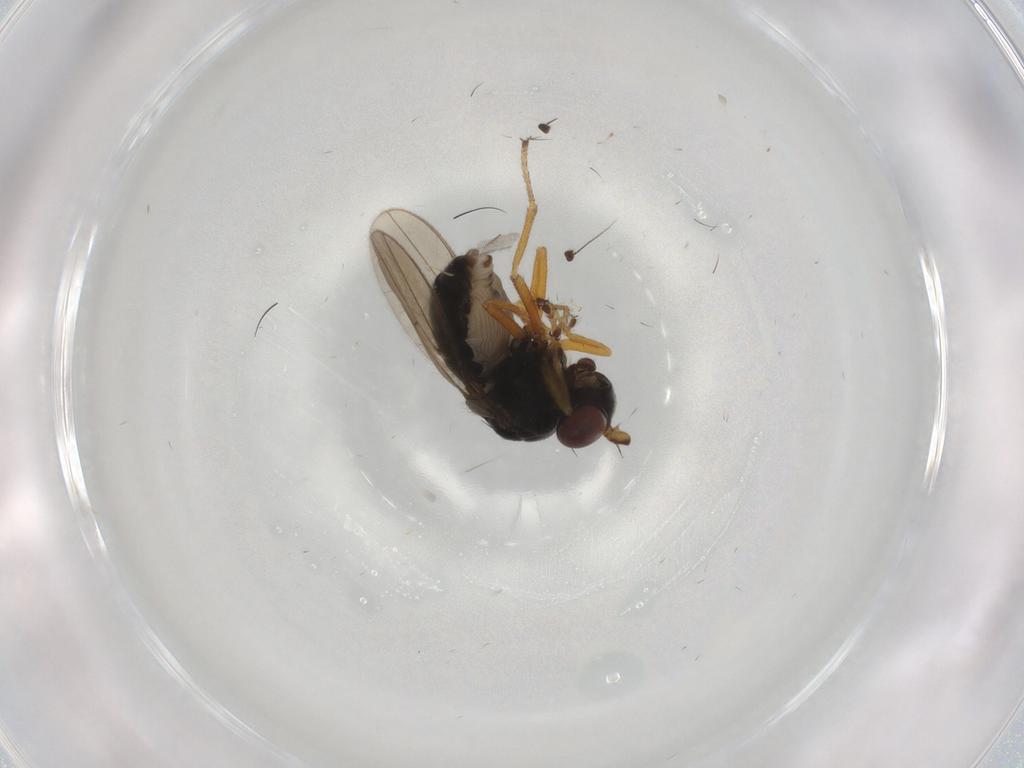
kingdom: Animalia
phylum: Arthropoda
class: Insecta
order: Diptera
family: Ephydridae
